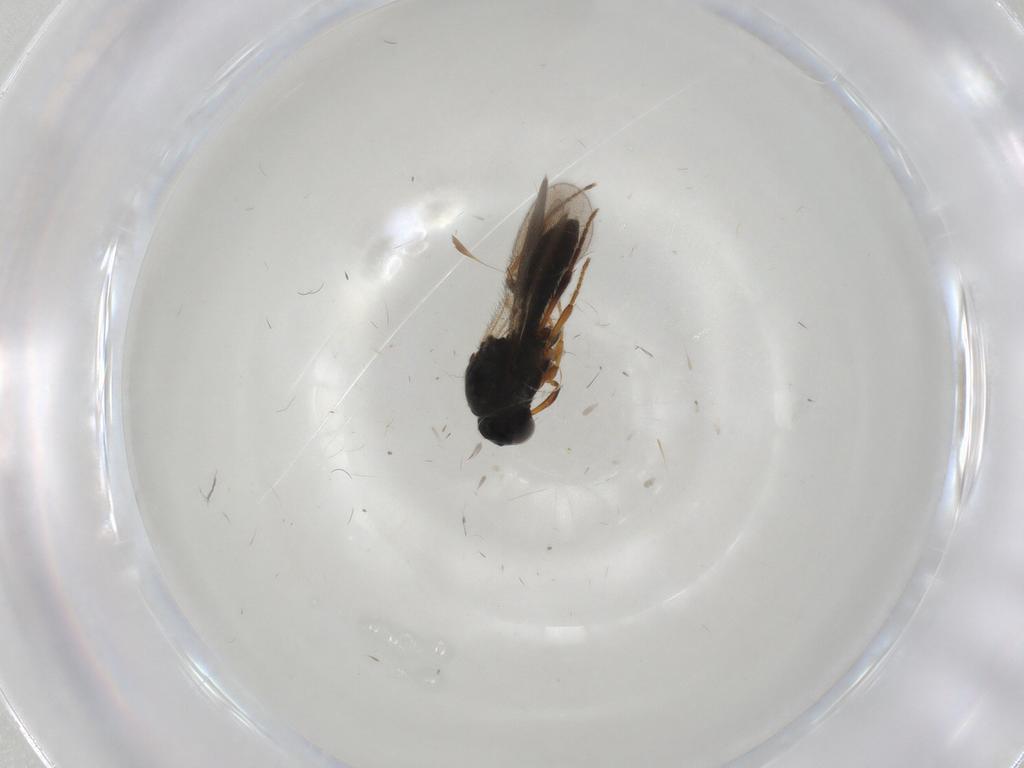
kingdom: Animalia
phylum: Arthropoda
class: Insecta
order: Hymenoptera
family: Platygastridae
